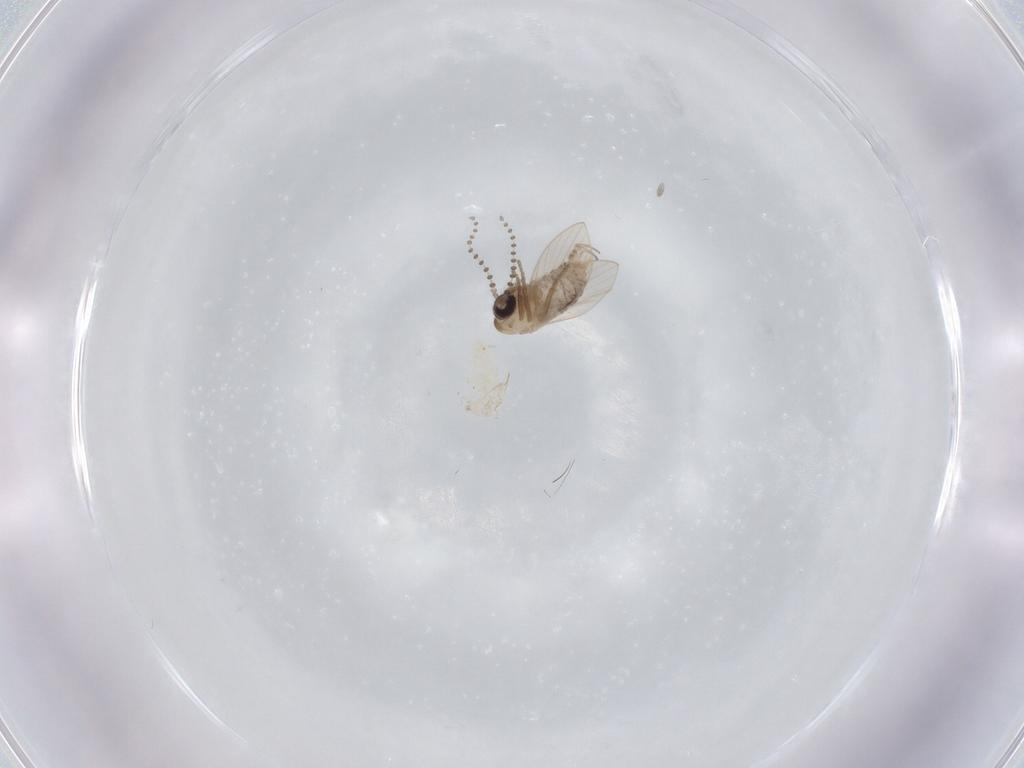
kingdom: Animalia
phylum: Arthropoda
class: Insecta
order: Diptera
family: Psychodidae
